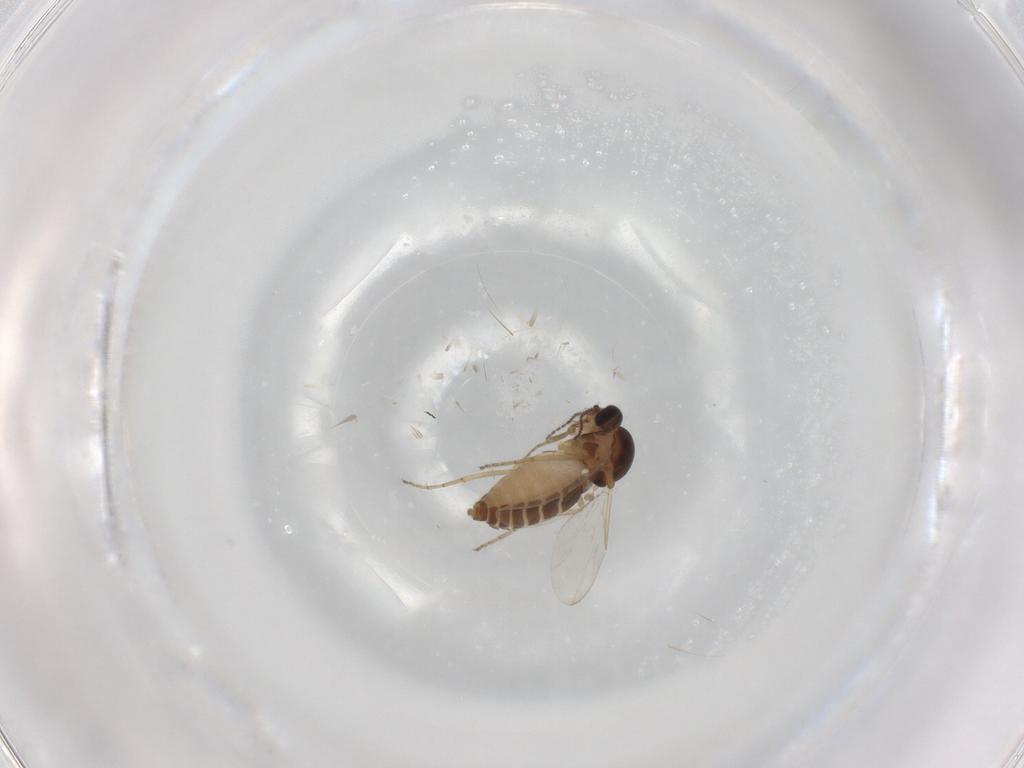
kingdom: Animalia
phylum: Arthropoda
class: Insecta
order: Diptera
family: Ceratopogonidae
